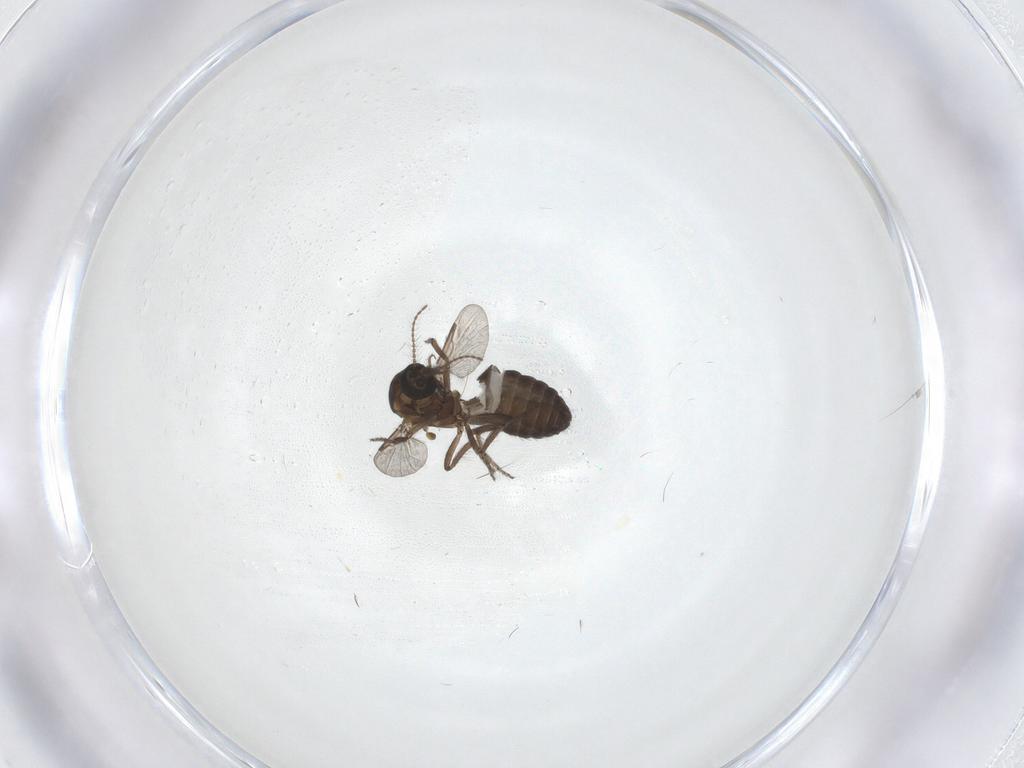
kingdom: Animalia
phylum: Arthropoda
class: Insecta
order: Diptera
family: Ceratopogonidae
